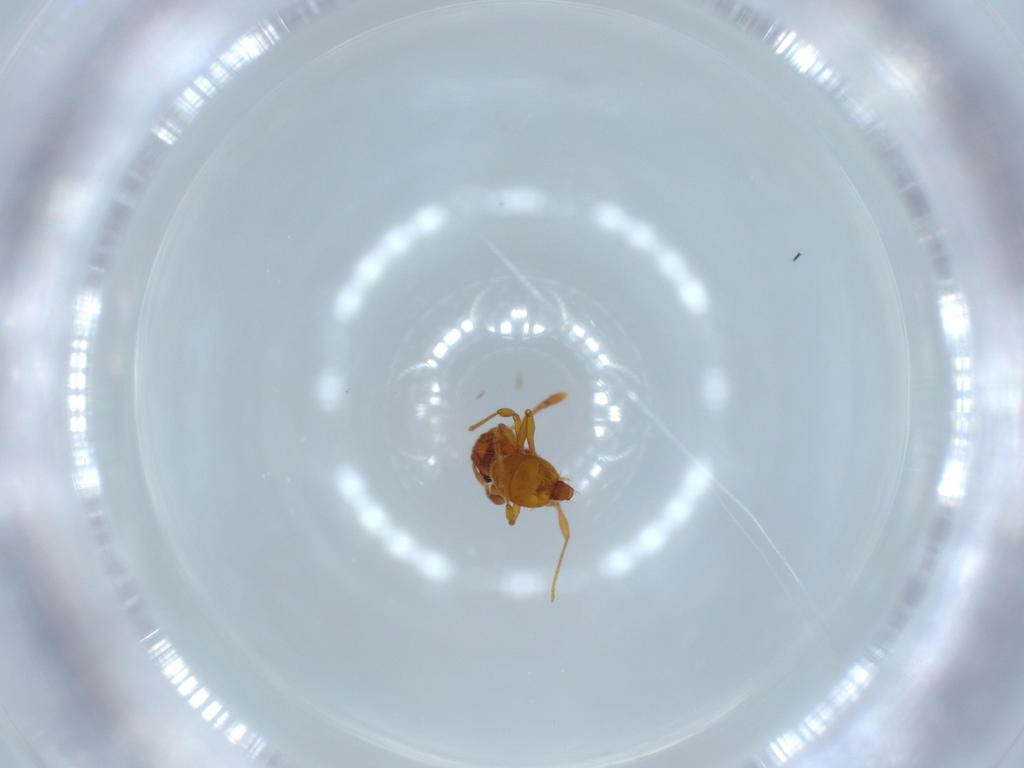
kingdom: Animalia
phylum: Arthropoda
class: Insecta
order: Hymenoptera
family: Formicidae
